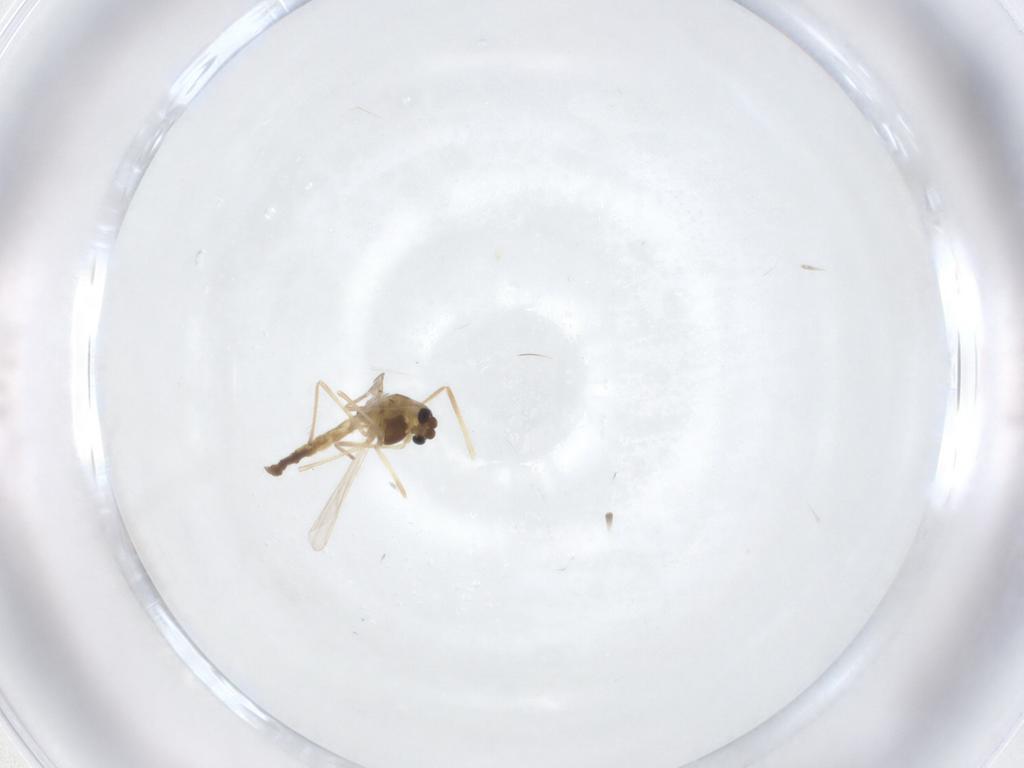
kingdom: Animalia
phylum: Arthropoda
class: Insecta
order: Diptera
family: Chironomidae
